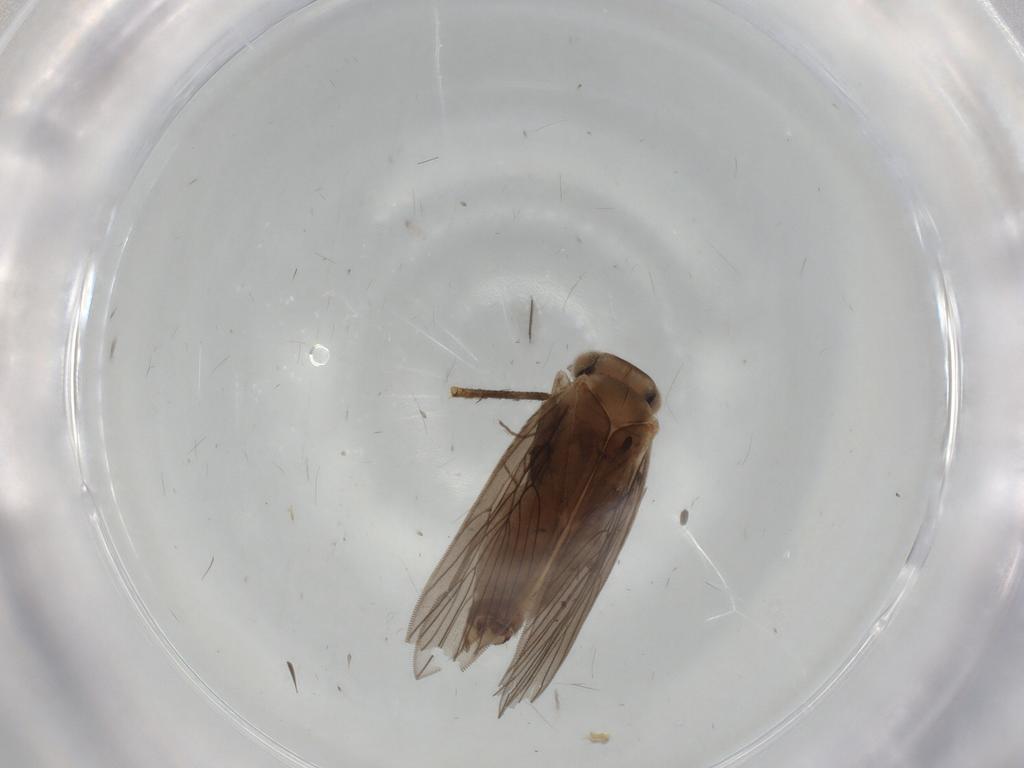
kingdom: Animalia
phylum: Arthropoda
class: Insecta
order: Psocodea
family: Lepidopsocidae
